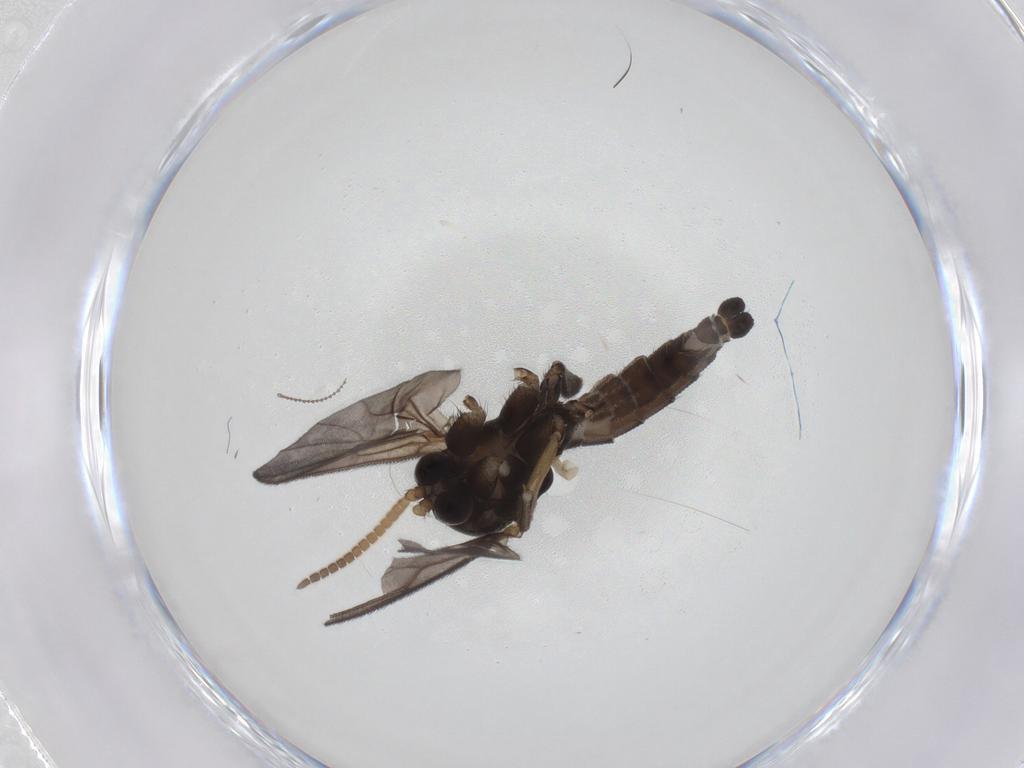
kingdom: Animalia
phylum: Arthropoda
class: Insecta
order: Diptera
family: Mycetophilidae
